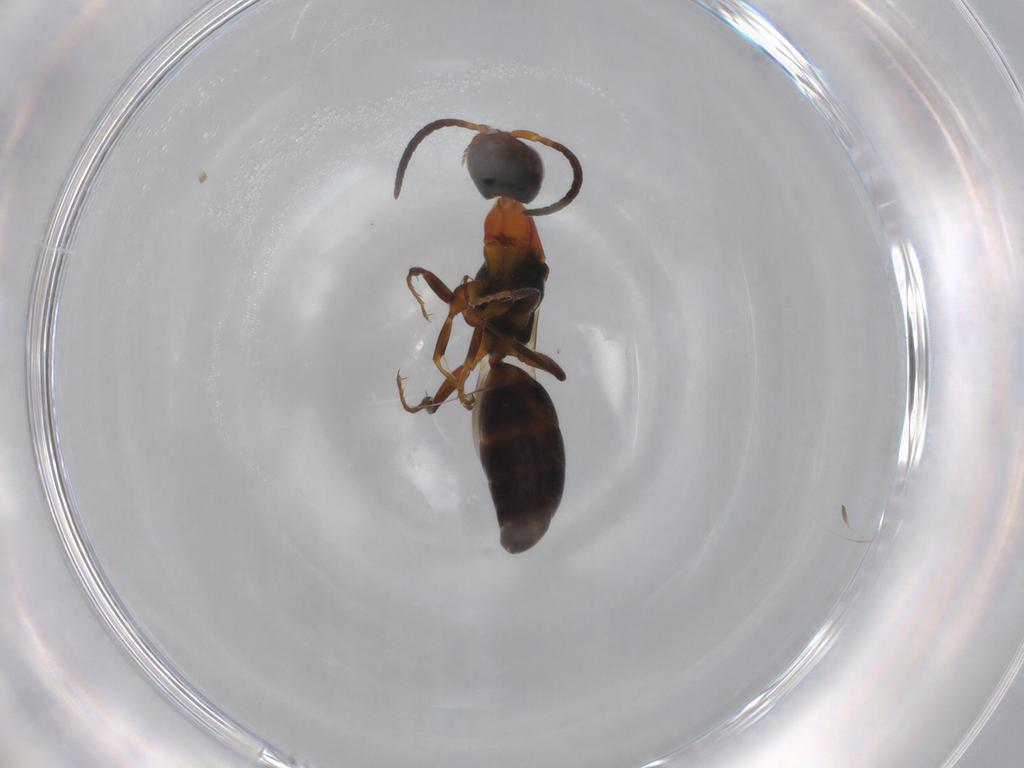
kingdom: Animalia
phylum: Arthropoda
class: Insecta
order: Hymenoptera
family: Bethylidae
